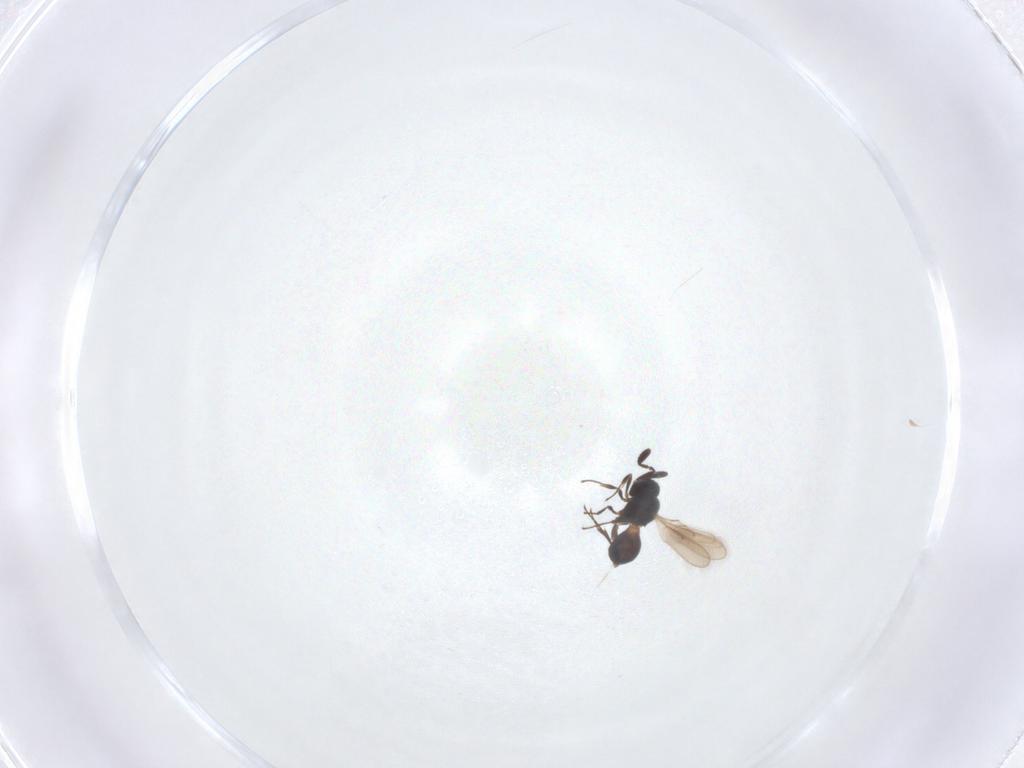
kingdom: Animalia
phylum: Arthropoda
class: Insecta
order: Hymenoptera
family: Scelionidae
